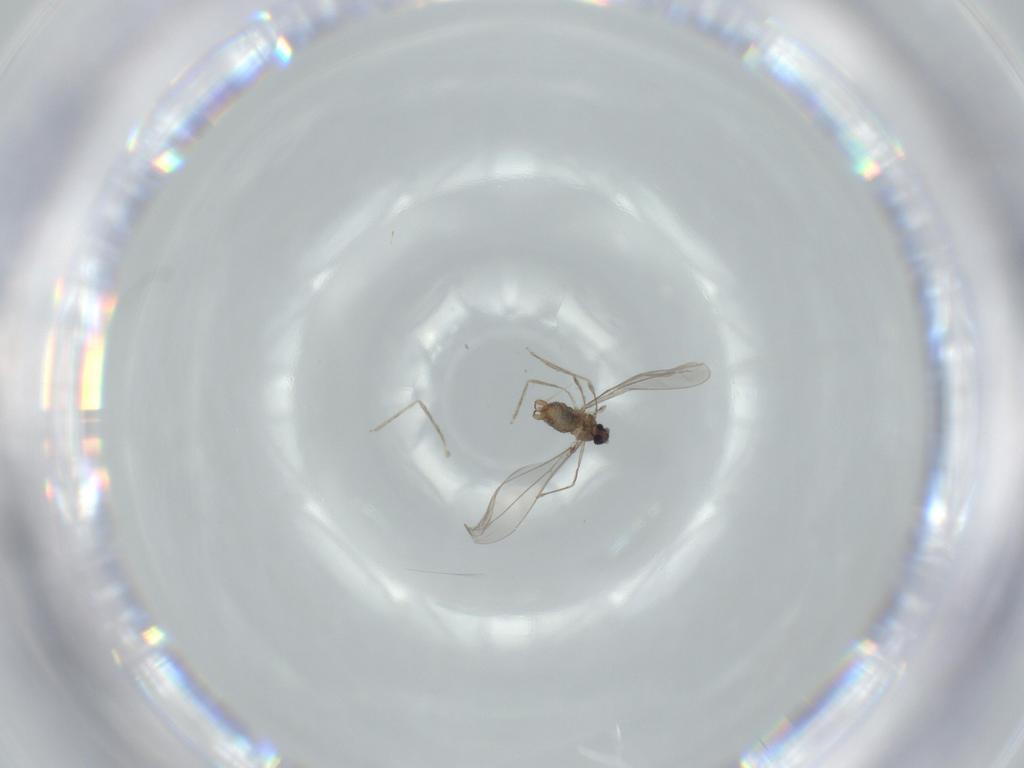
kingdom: Animalia
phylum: Arthropoda
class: Insecta
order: Diptera
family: Cecidomyiidae
